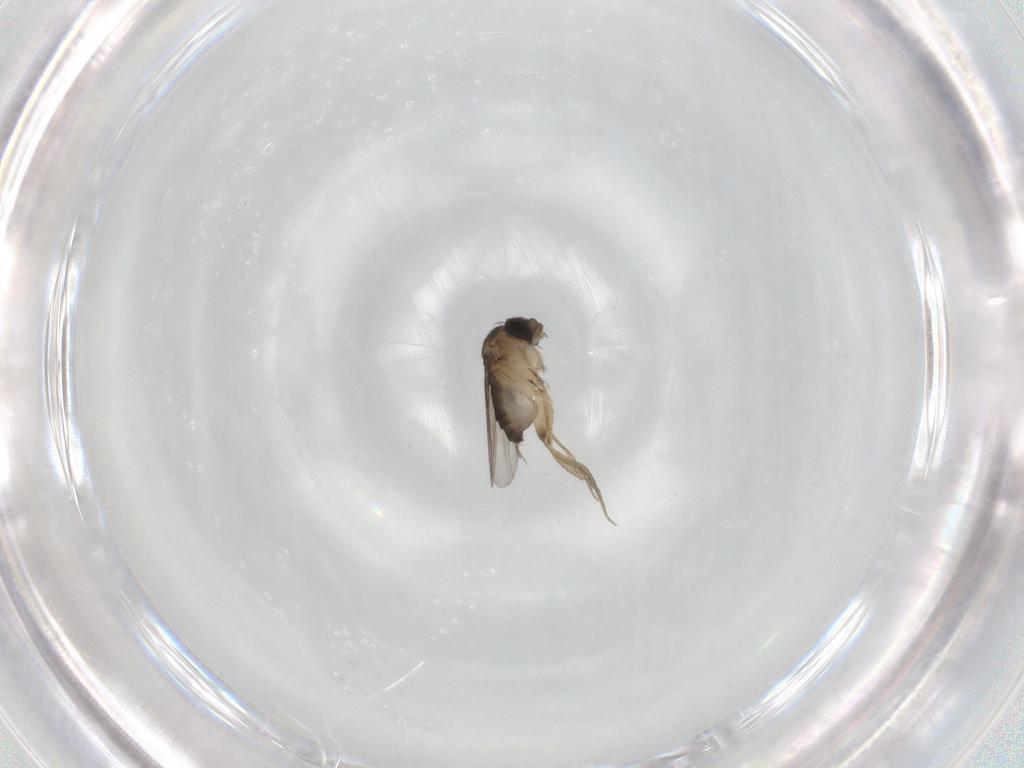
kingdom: Animalia
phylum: Arthropoda
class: Insecta
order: Diptera
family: Phoridae
